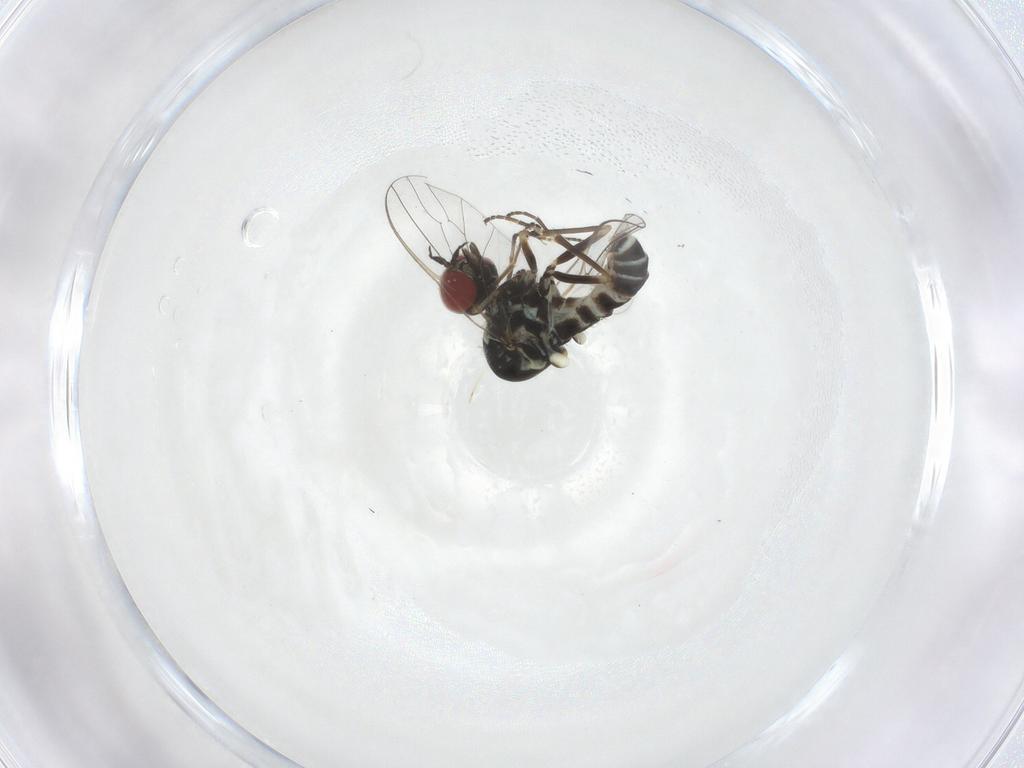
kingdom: Animalia
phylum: Arthropoda
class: Insecta
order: Diptera
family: Bombyliidae
